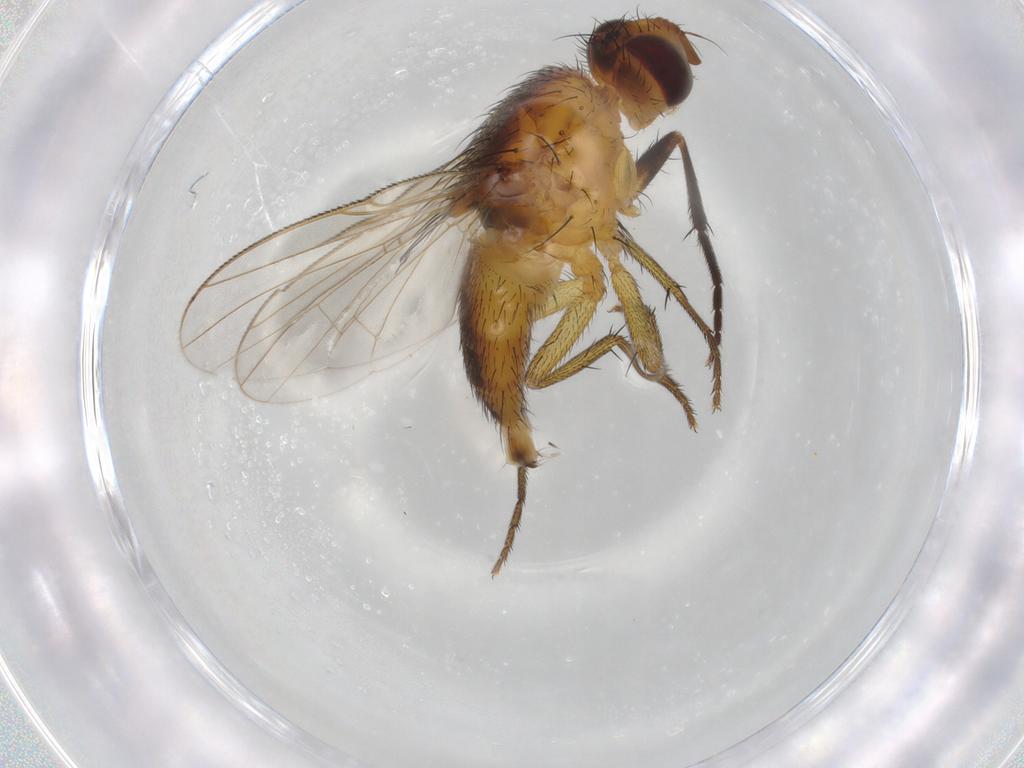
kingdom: Animalia
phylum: Arthropoda
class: Insecta
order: Diptera
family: Muscidae
